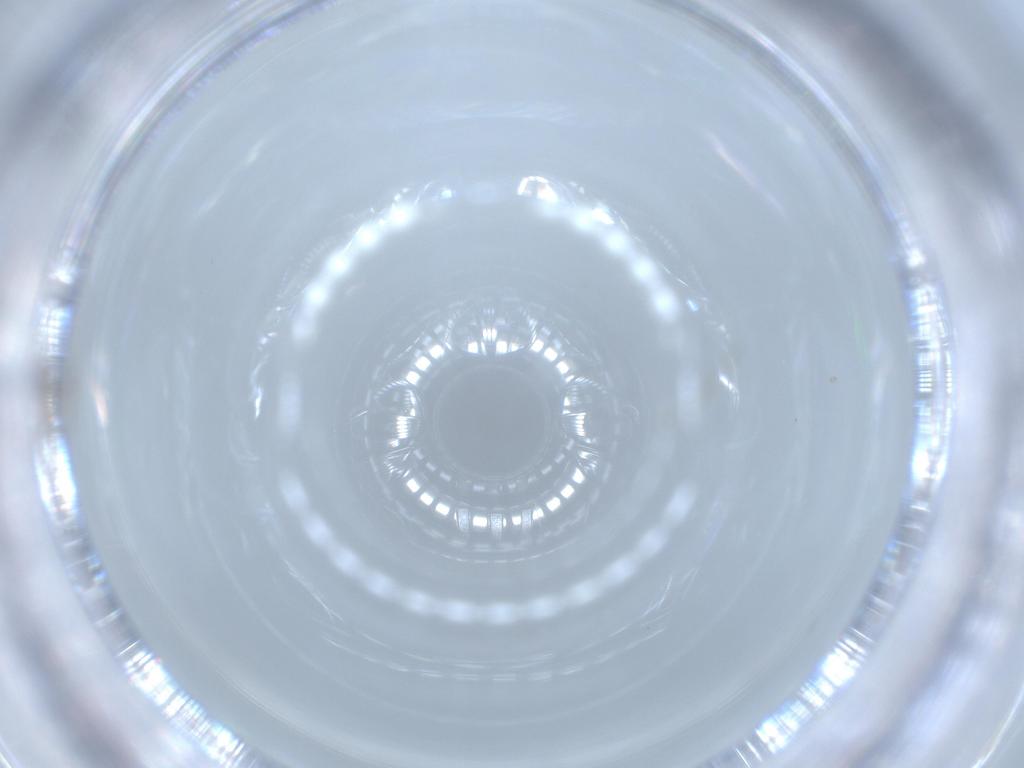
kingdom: Animalia
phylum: Arthropoda
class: Insecta
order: Diptera
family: Cecidomyiidae
